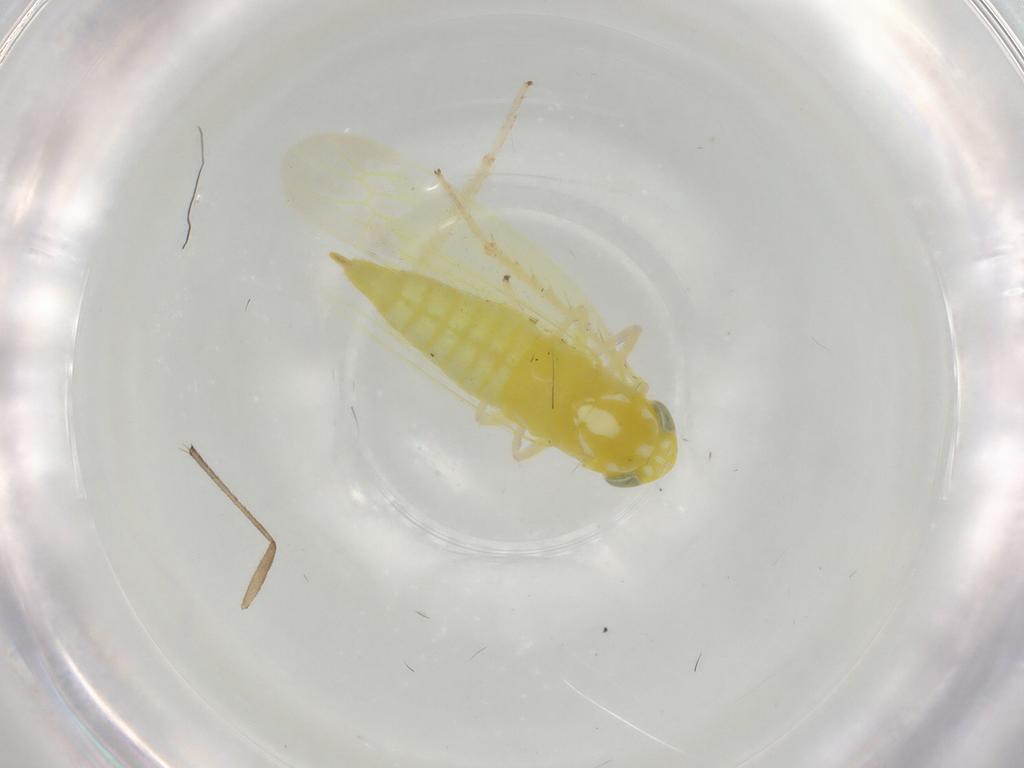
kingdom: Animalia
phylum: Arthropoda
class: Insecta
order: Hemiptera
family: Cicadellidae
